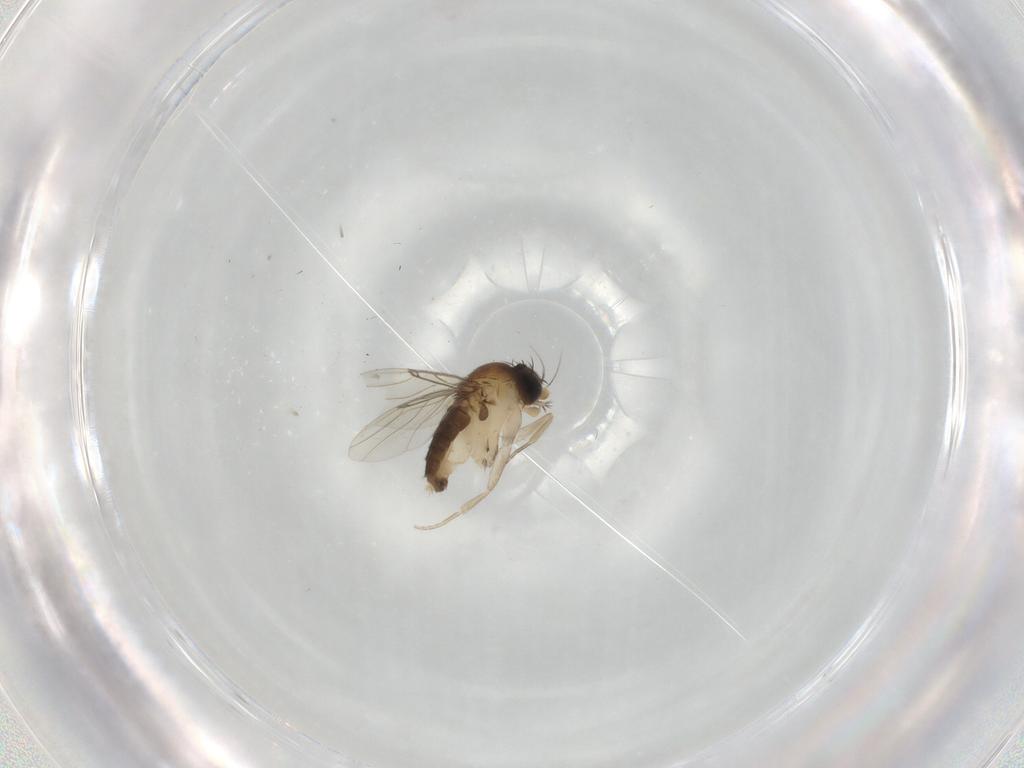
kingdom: Animalia
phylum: Arthropoda
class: Insecta
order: Diptera
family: Phoridae
